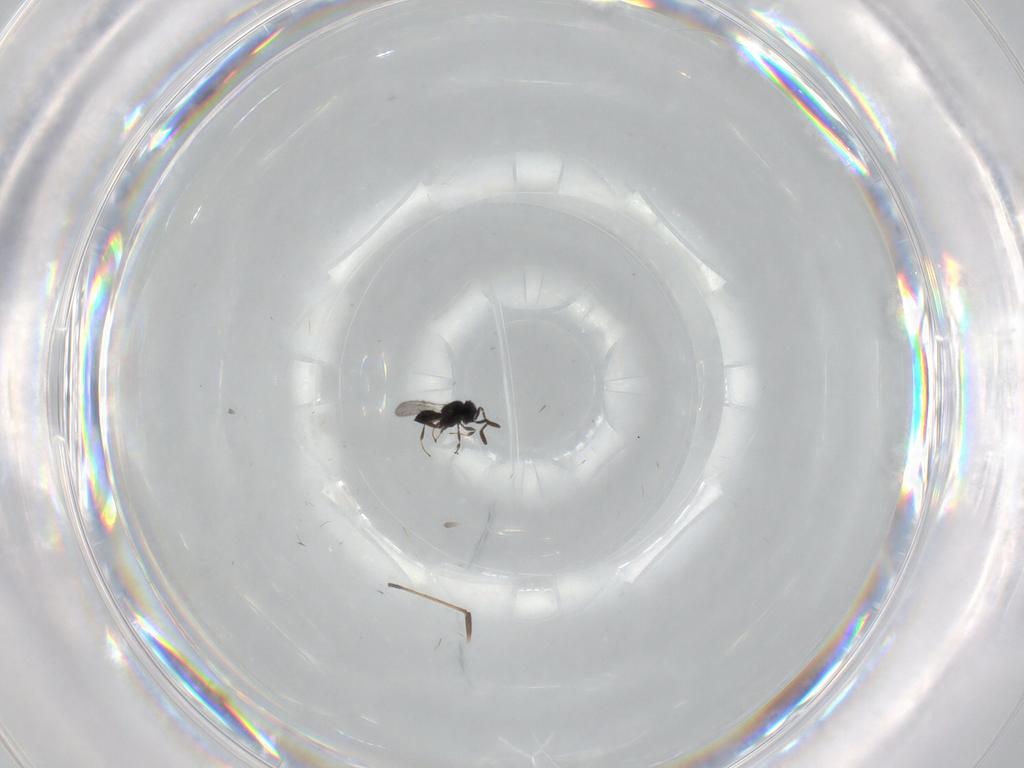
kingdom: Animalia
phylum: Arthropoda
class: Insecta
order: Hymenoptera
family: Scelionidae
